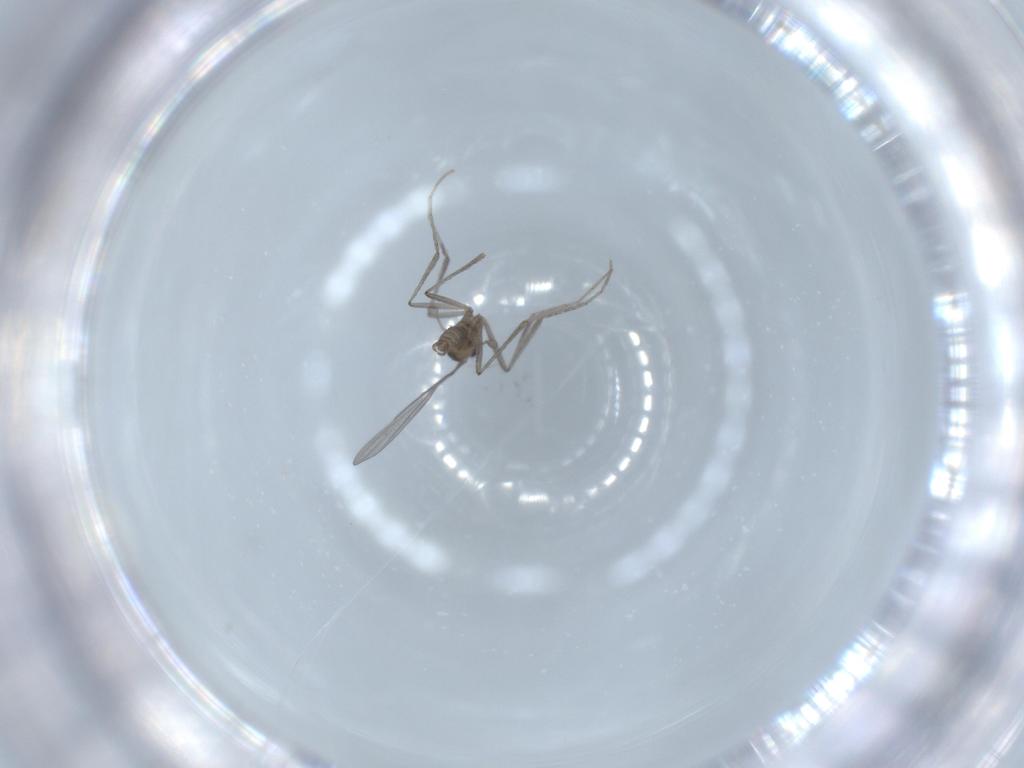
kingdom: Animalia
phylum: Arthropoda
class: Insecta
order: Diptera
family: Cecidomyiidae
